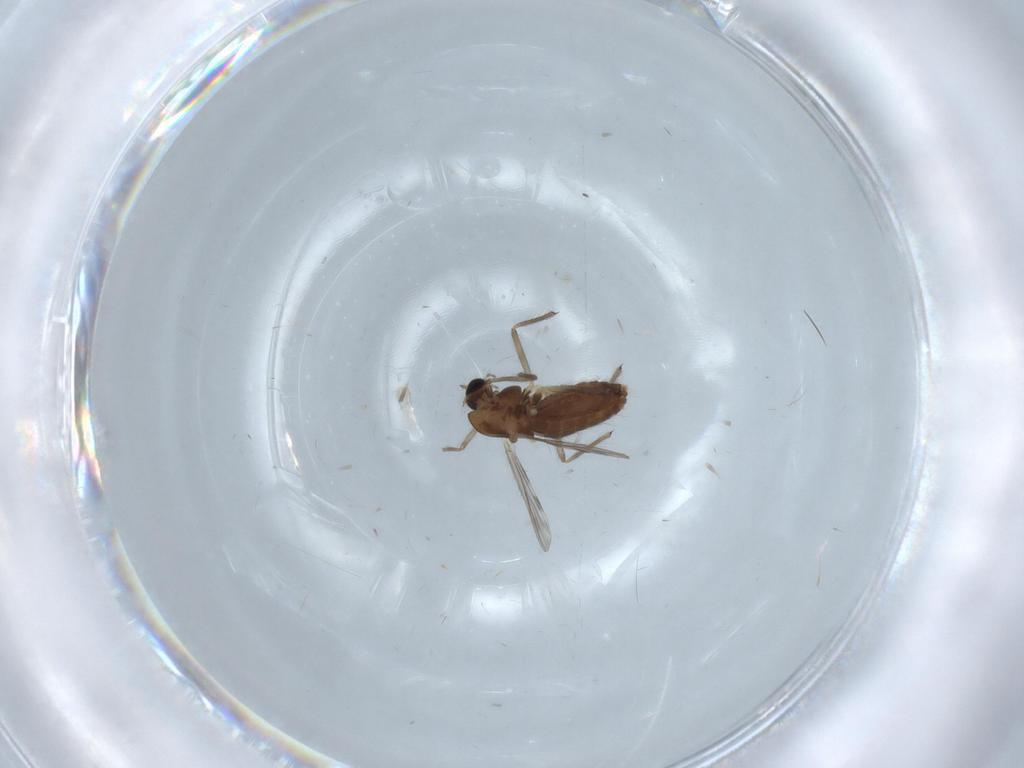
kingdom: Animalia
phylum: Arthropoda
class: Insecta
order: Diptera
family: Chironomidae
